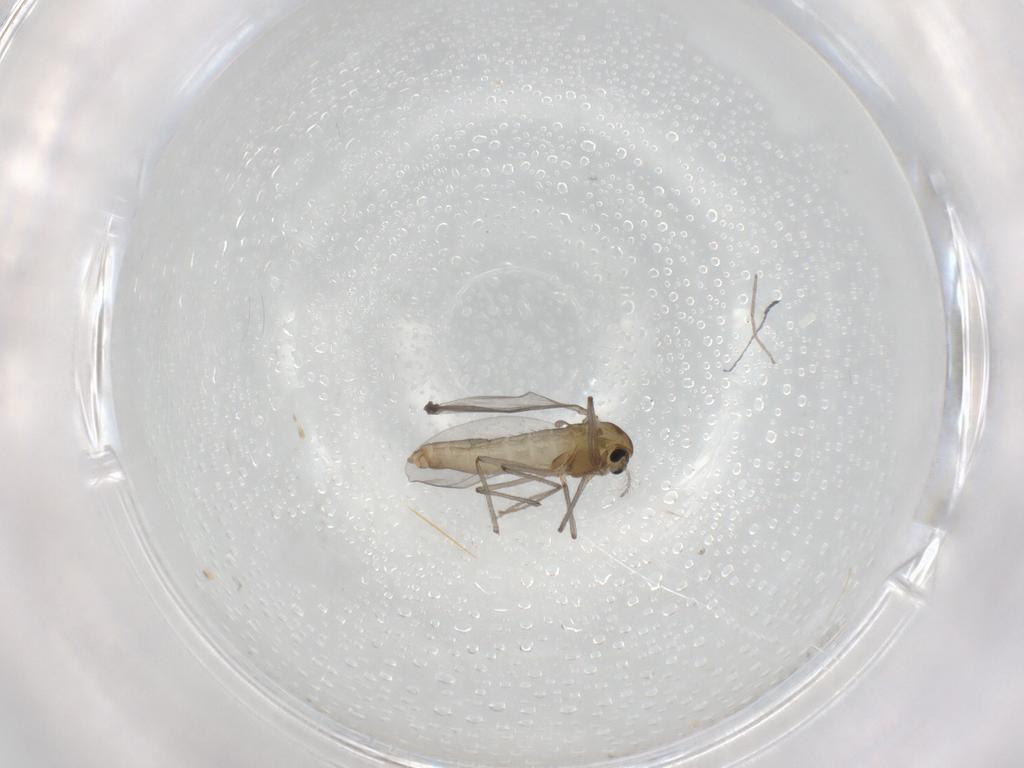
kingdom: Animalia
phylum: Arthropoda
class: Insecta
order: Diptera
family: Chironomidae
